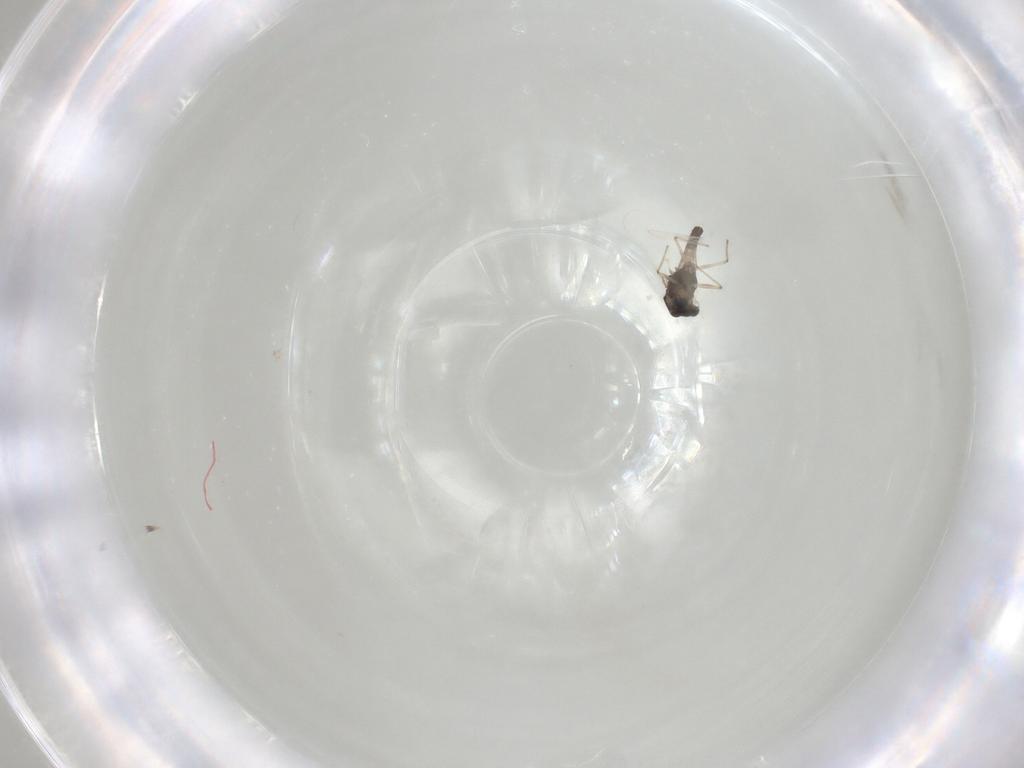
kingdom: Animalia
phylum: Arthropoda
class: Insecta
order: Diptera
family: Chironomidae
